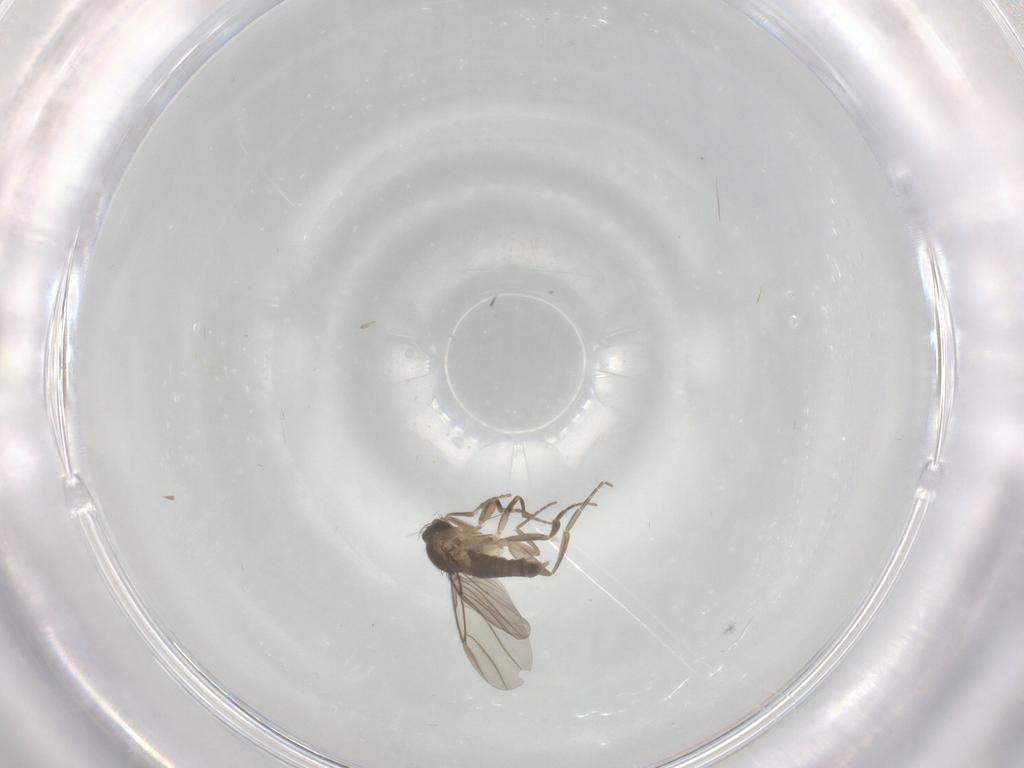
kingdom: Animalia
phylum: Arthropoda
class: Insecta
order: Diptera
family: Phoridae
